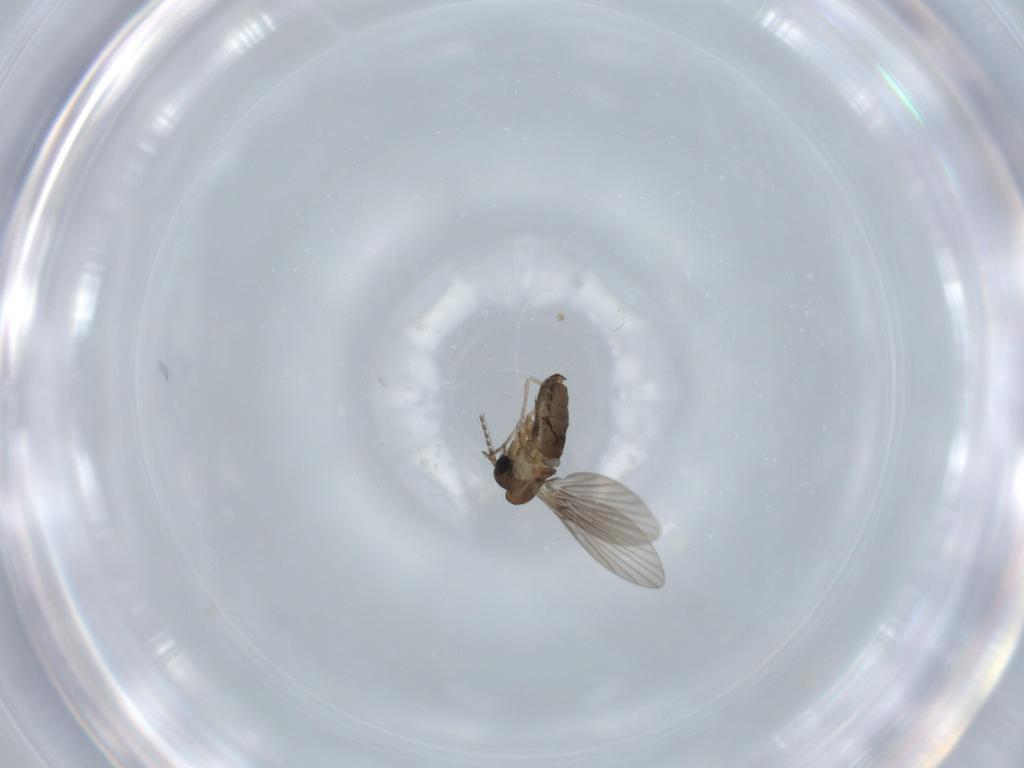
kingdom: Animalia
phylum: Arthropoda
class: Insecta
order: Diptera
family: Psychodidae
